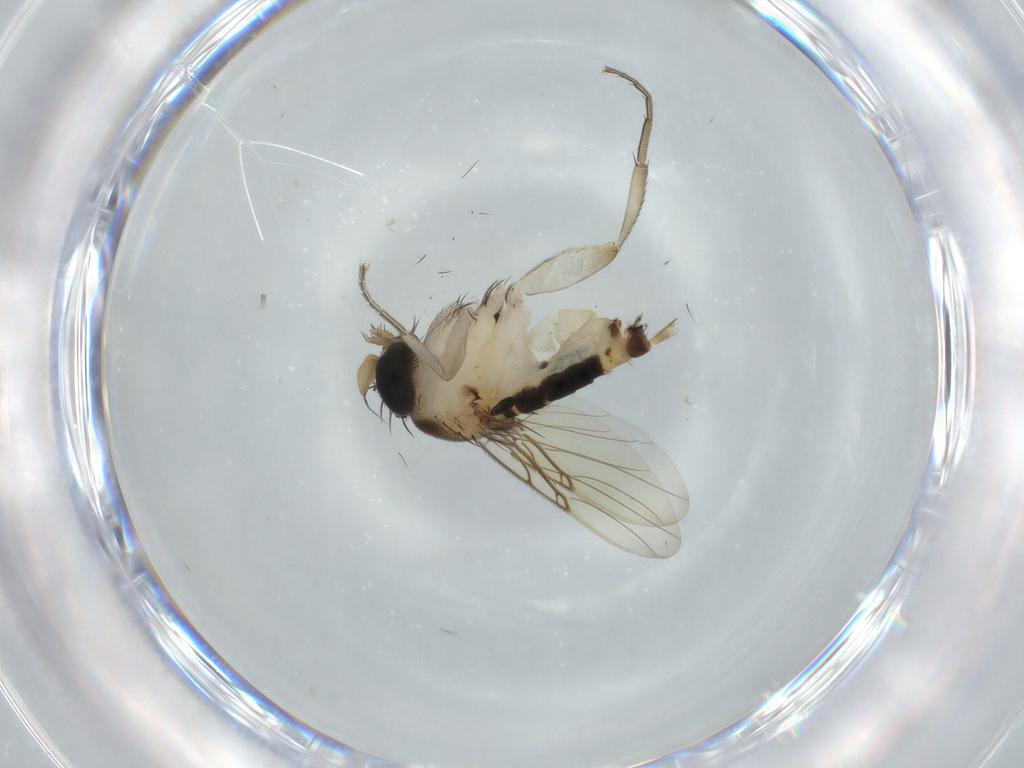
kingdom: Animalia
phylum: Arthropoda
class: Insecta
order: Diptera
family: Phoridae
